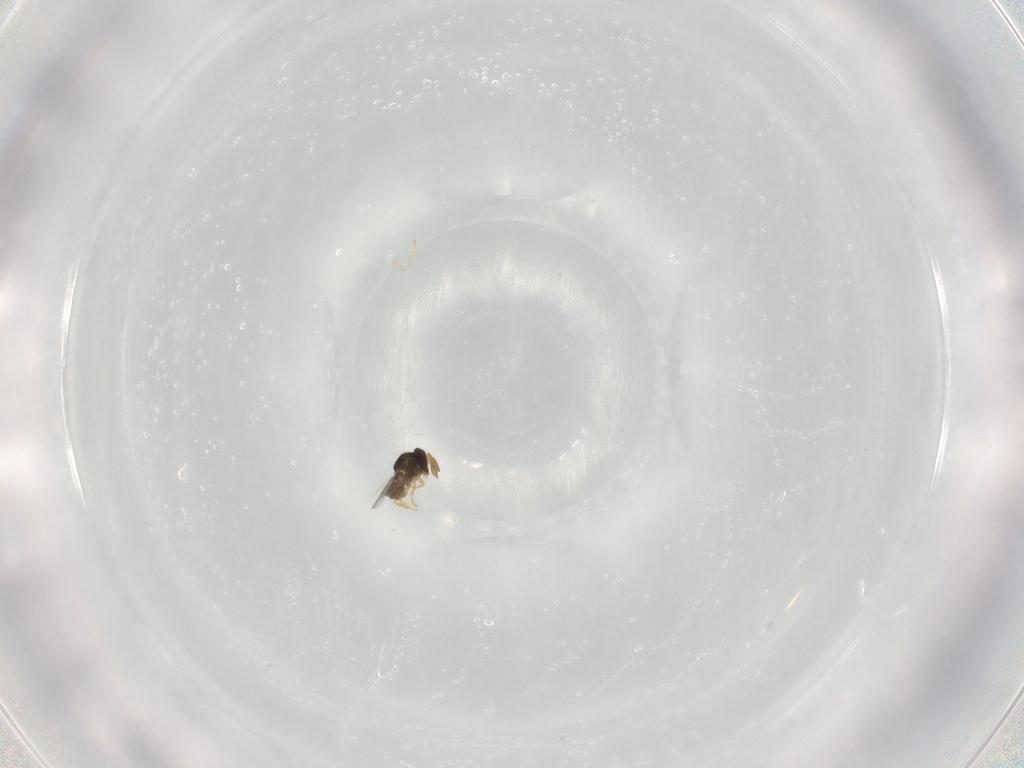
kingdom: Animalia
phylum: Arthropoda
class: Insecta
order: Hymenoptera
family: Encyrtidae
